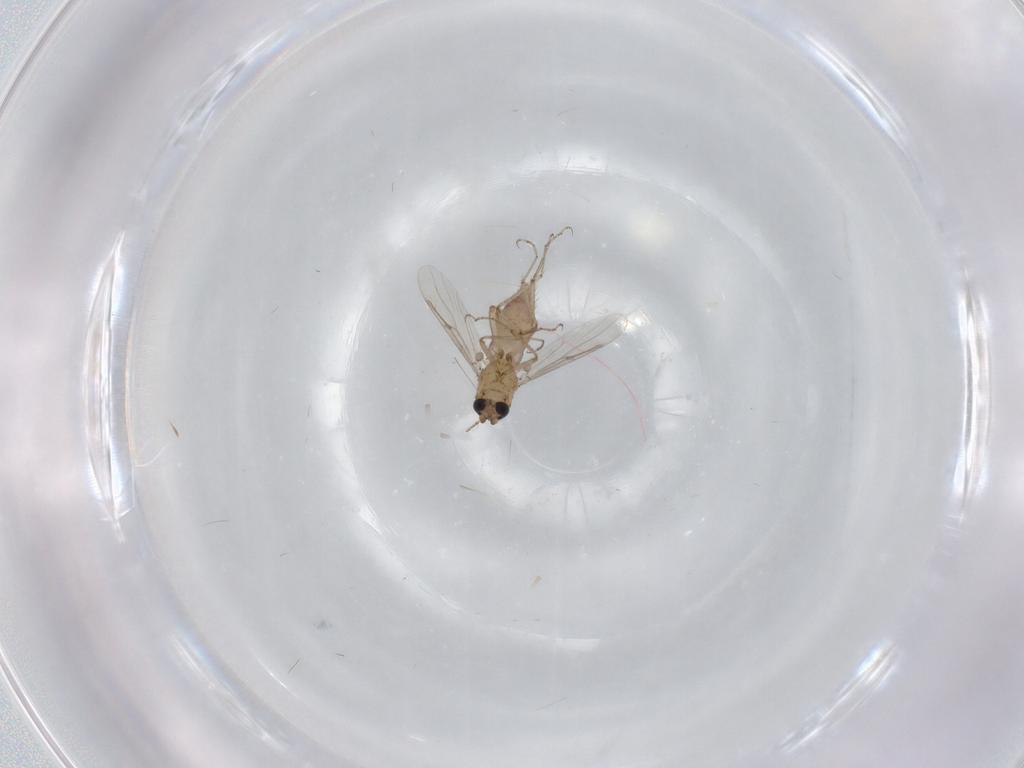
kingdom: Animalia
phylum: Arthropoda
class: Insecta
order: Diptera
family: Ceratopogonidae
